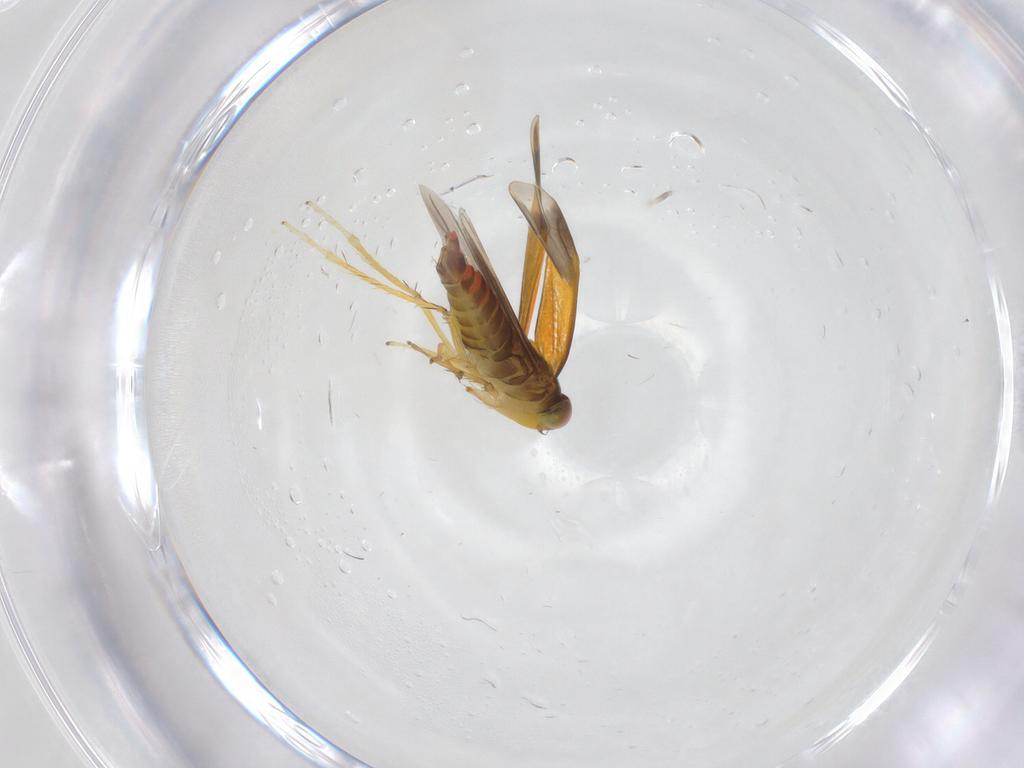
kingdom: Animalia
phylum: Arthropoda
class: Insecta
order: Hemiptera
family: Cicadellidae
